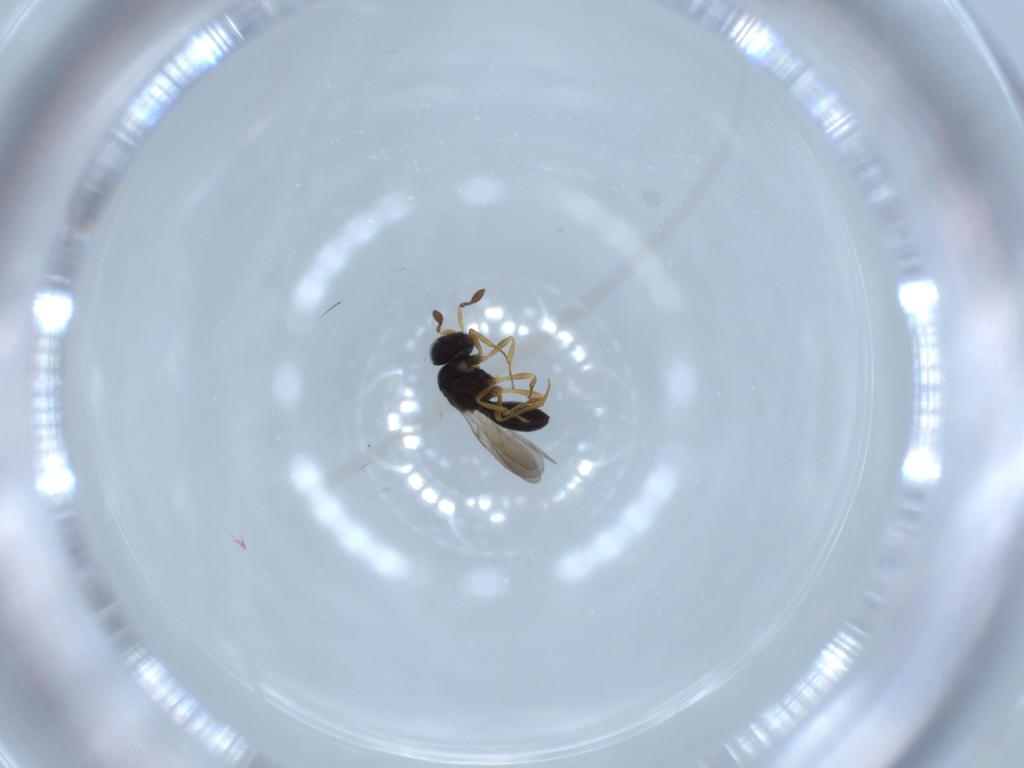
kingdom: Animalia
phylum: Arthropoda
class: Insecta
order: Hymenoptera
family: Scelionidae
